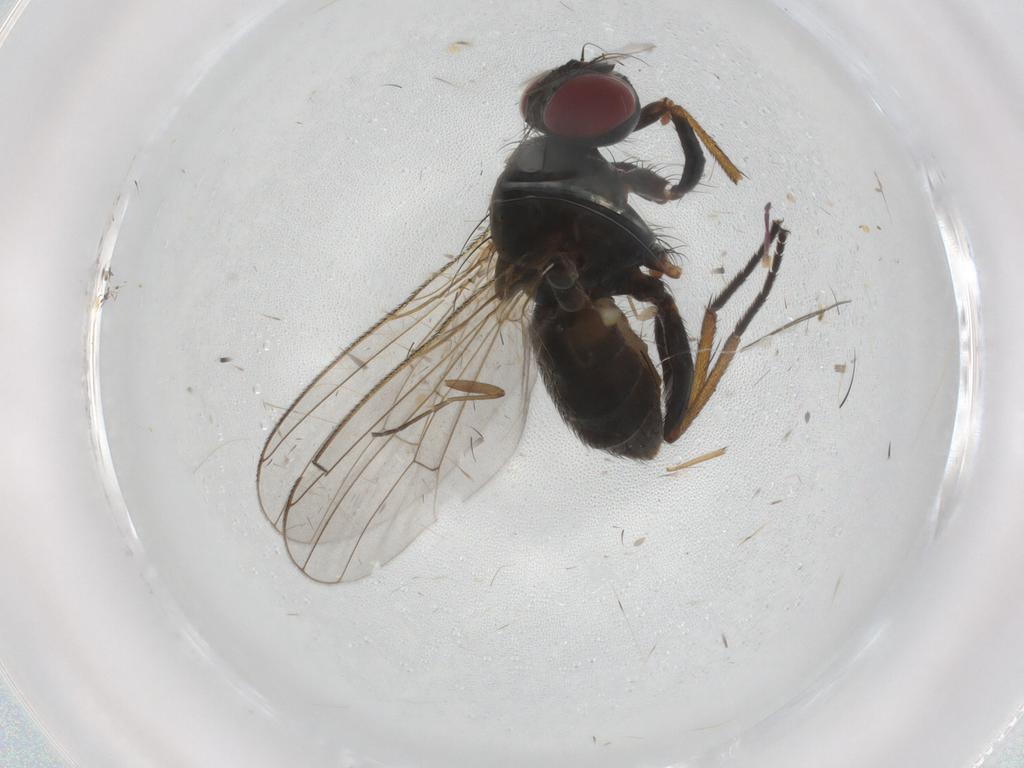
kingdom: Animalia
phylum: Arthropoda
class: Insecta
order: Diptera
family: Muscidae
